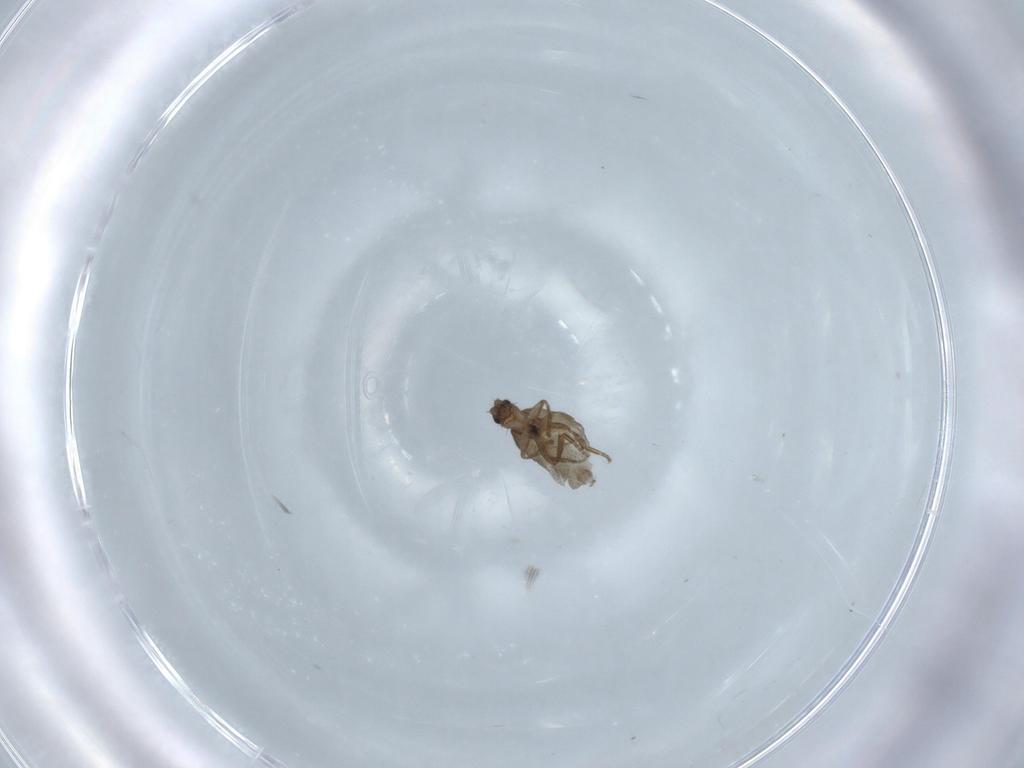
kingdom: Animalia
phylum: Arthropoda
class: Insecta
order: Diptera
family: Phoridae
